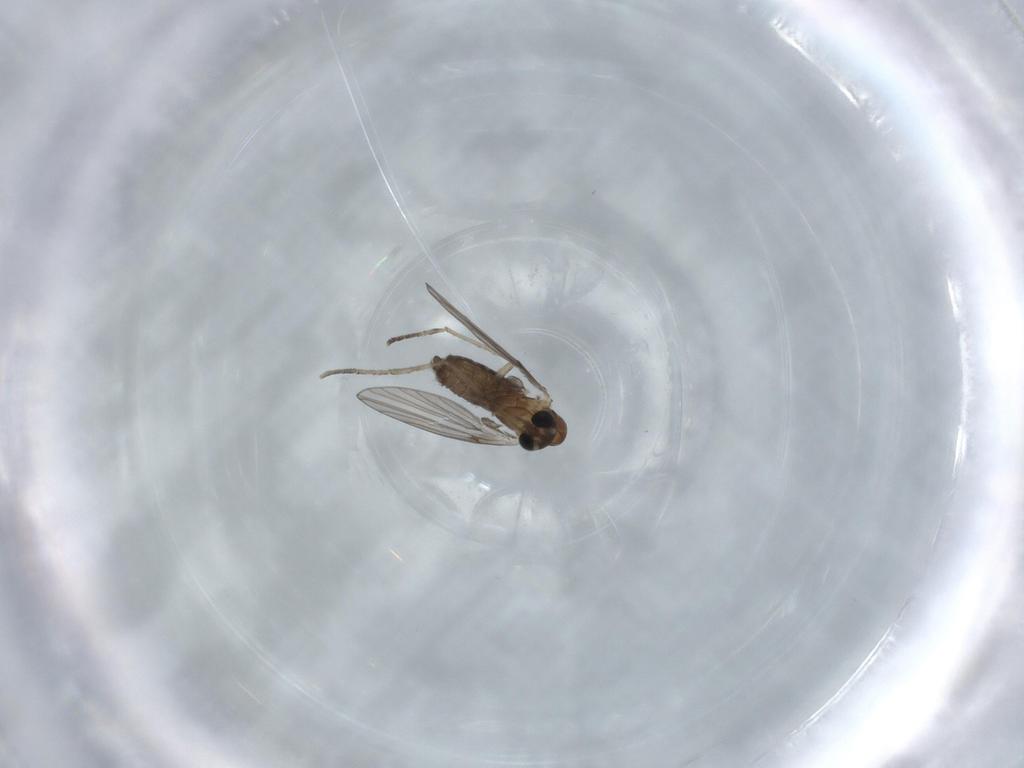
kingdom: Animalia
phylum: Arthropoda
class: Insecta
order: Diptera
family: Psychodidae
